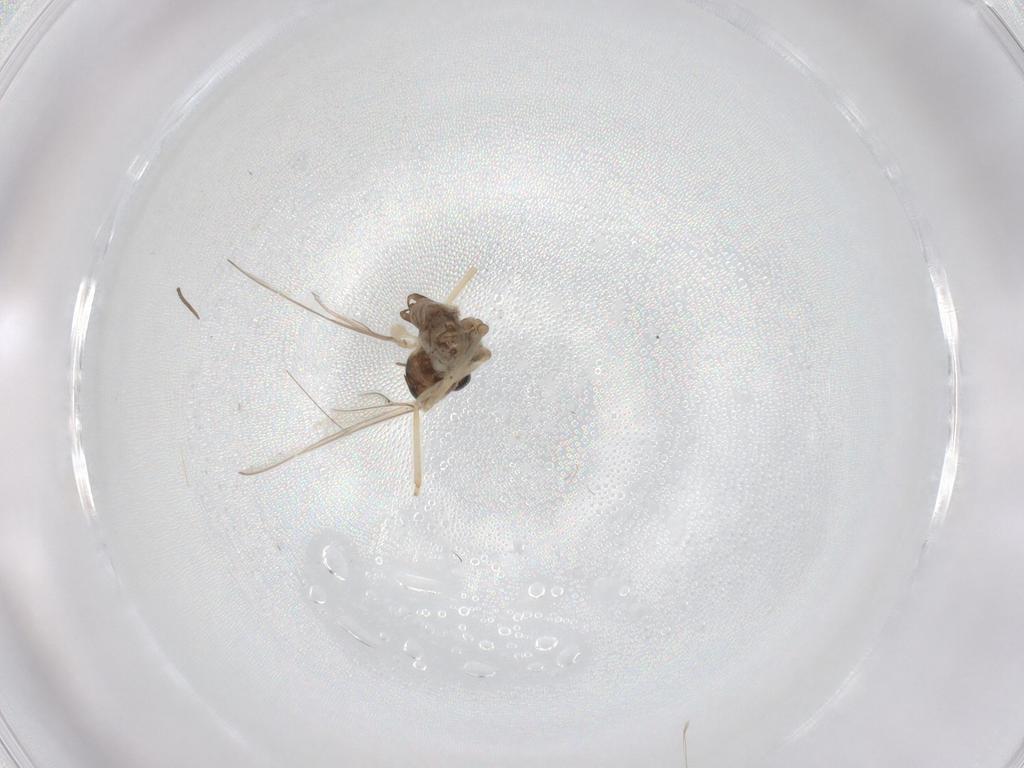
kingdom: Animalia
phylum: Arthropoda
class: Insecta
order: Diptera
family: Cecidomyiidae
